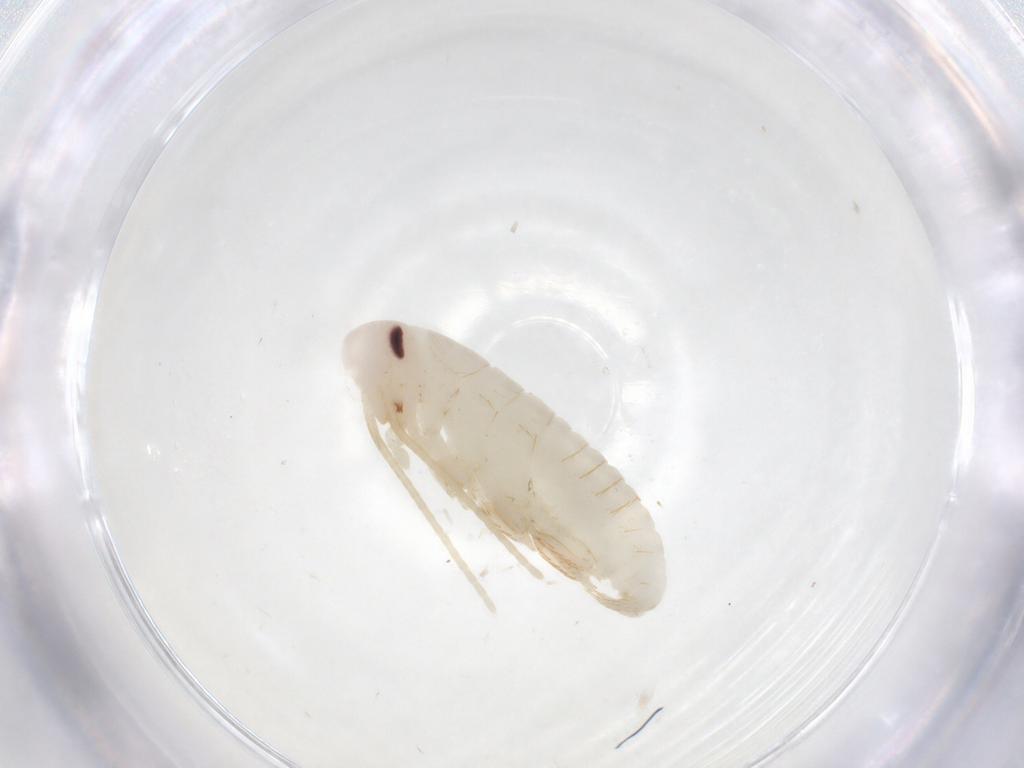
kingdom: Animalia
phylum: Arthropoda
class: Insecta
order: Blattodea
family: Ectobiidae
